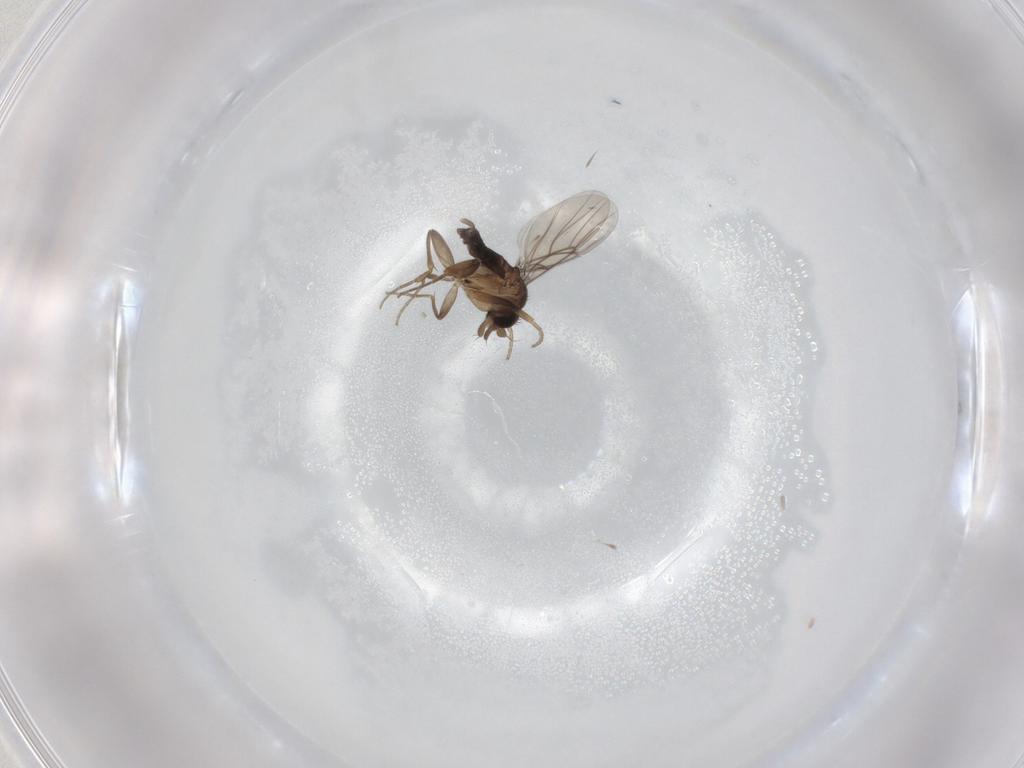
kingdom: Animalia
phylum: Arthropoda
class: Insecta
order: Diptera
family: Phoridae
